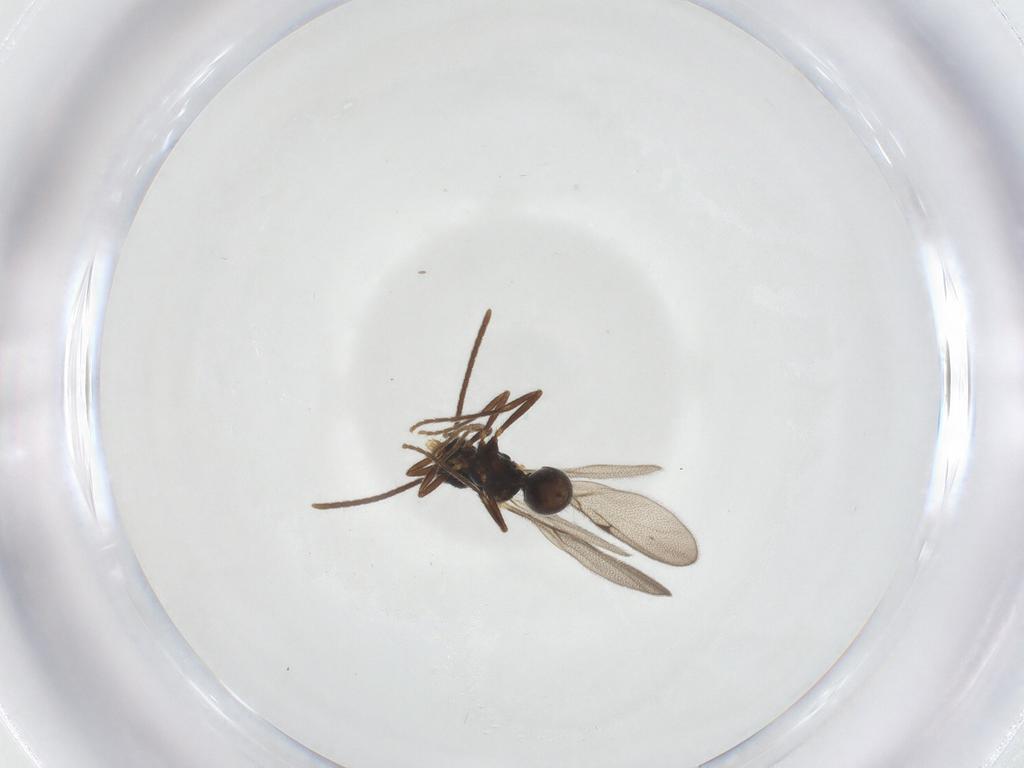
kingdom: Animalia
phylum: Arthropoda
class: Insecta
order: Hymenoptera
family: Formicidae
